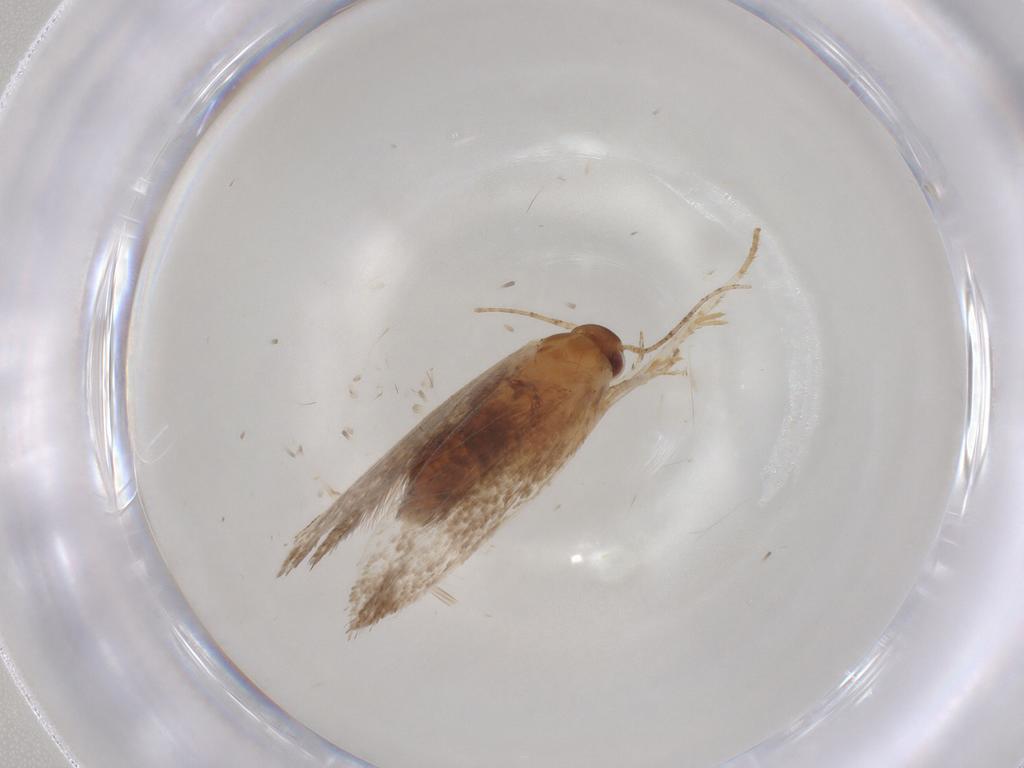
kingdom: Animalia
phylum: Arthropoda
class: Insecta
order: Lepidoptera
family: Oecophoridae
